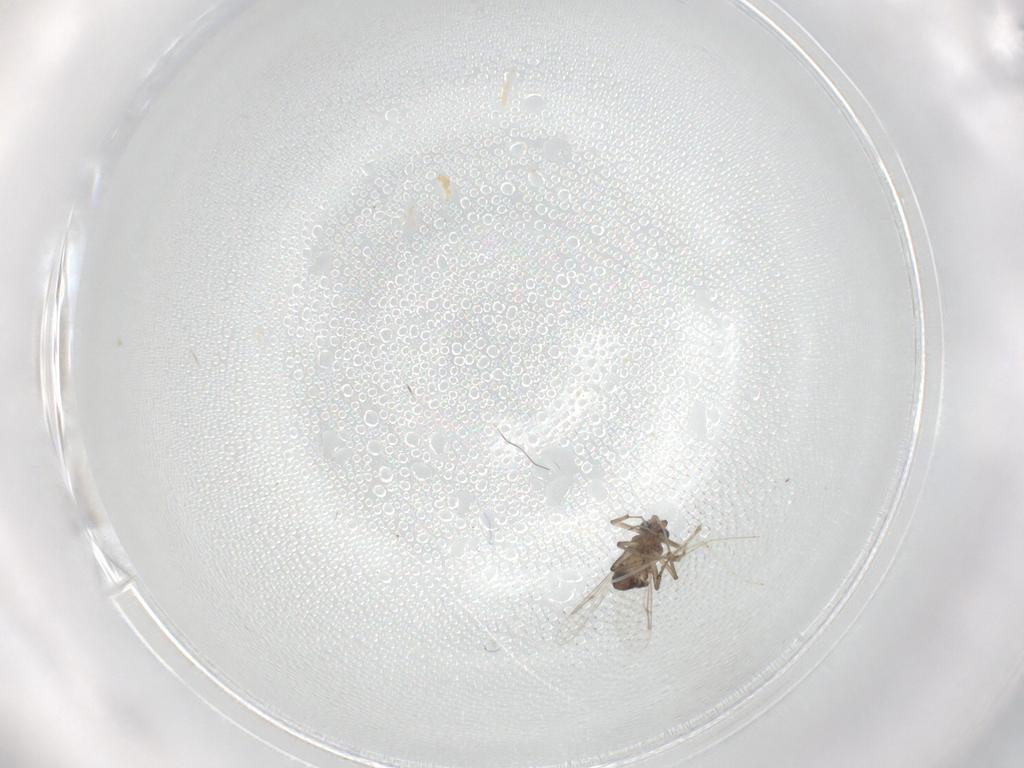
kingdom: Animalia
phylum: Arthropoda
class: Insecta
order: Diptera
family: Ceratopogonidae
